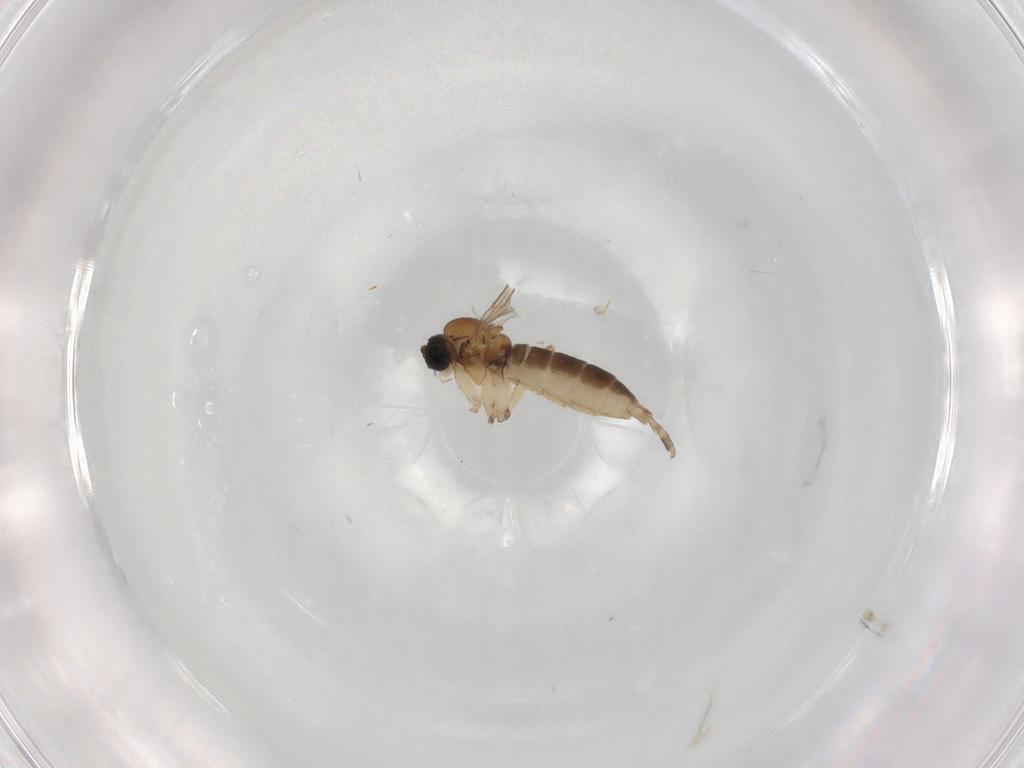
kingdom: Animalia
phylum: Arthropoda
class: Insecta
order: Diptera
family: Sciaridae
